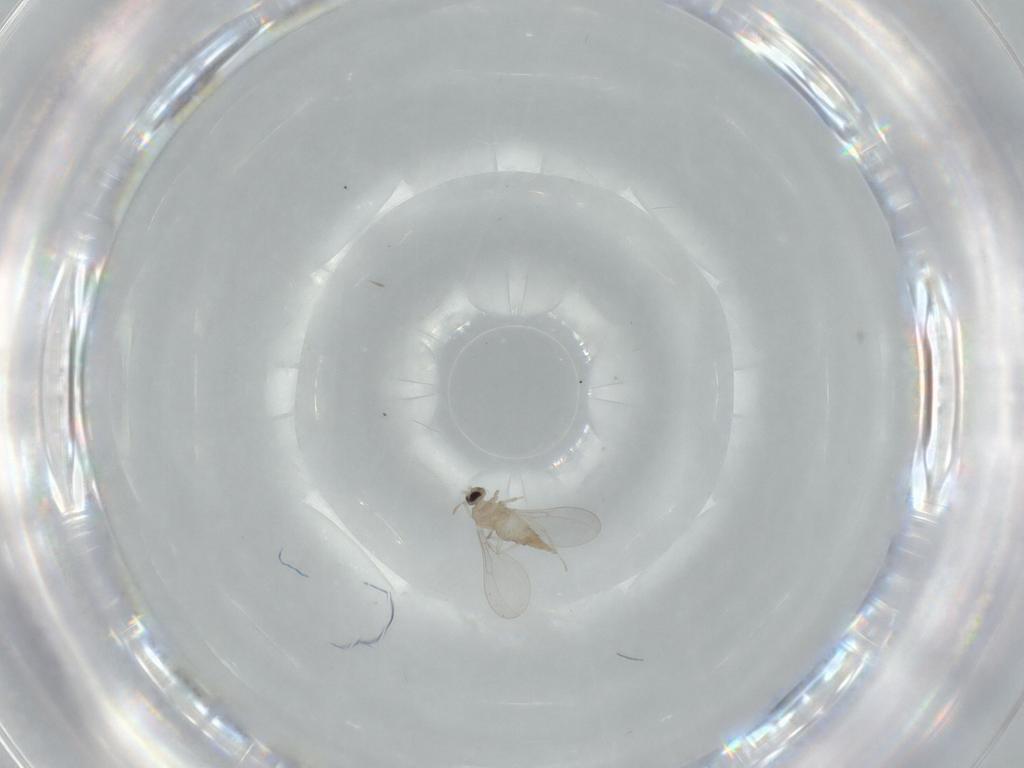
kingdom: Animalia
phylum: Arthropoda
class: Insecta
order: Diptera
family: Cecidomyiidae
